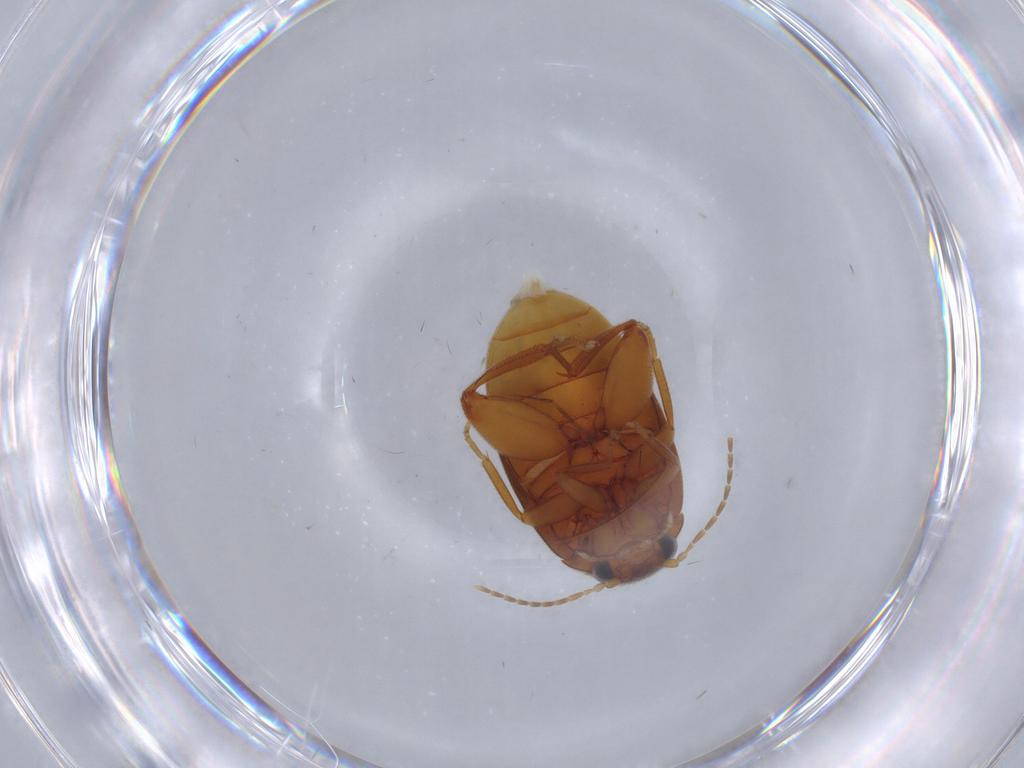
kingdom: Animalia
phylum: Arthropoda
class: Insecta
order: Coleoptera
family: Scirtidae
